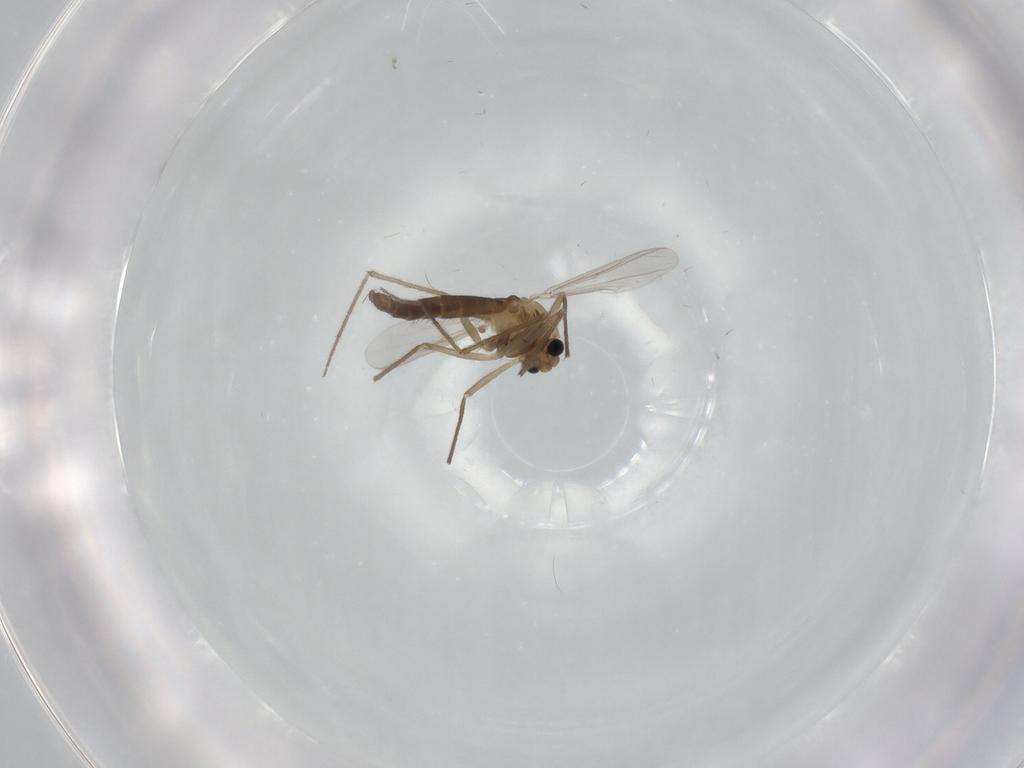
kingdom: Animalia
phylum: Arthropoda
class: Insecta
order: Diptera
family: Chironomidae
